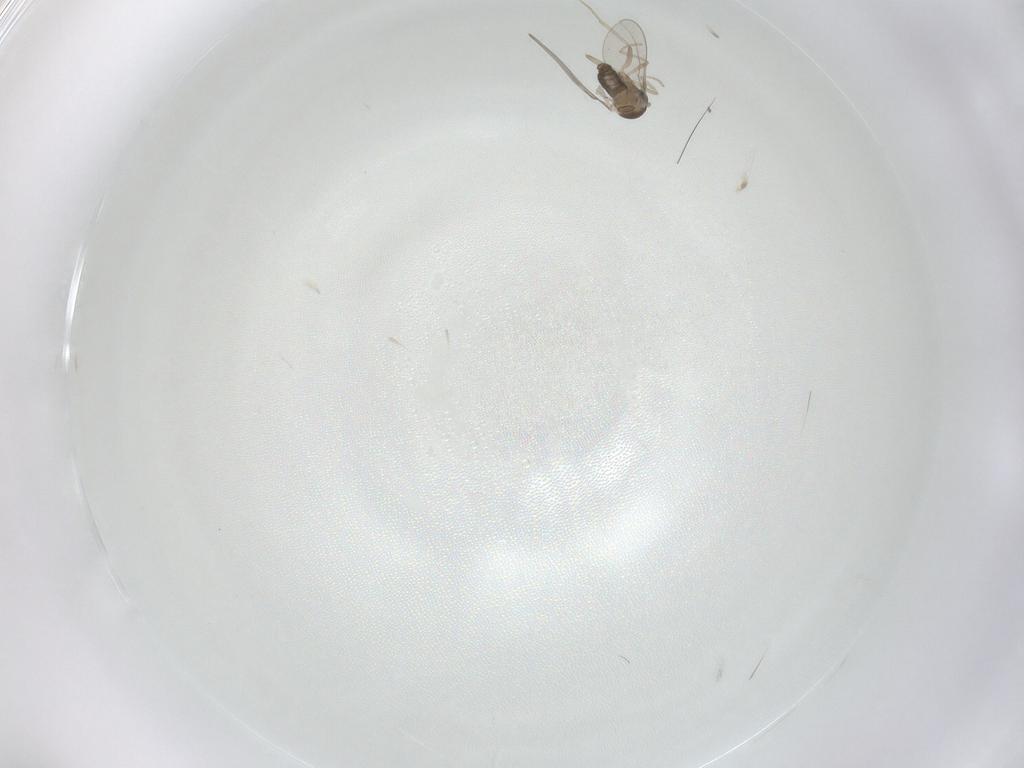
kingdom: Animalia
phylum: Arthropoda
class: Insecta
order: Diptera
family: Cecidomyiidae
